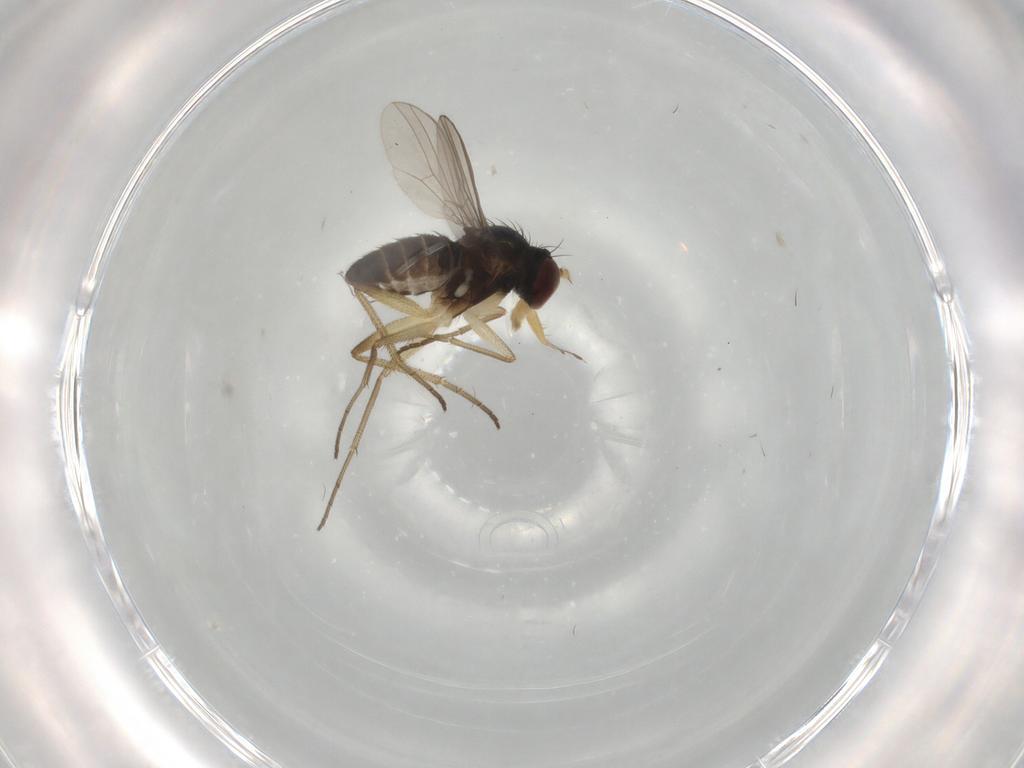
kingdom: Animalia
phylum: Arthropoda
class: Insecta
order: Diptera
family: Dolichopodidae
